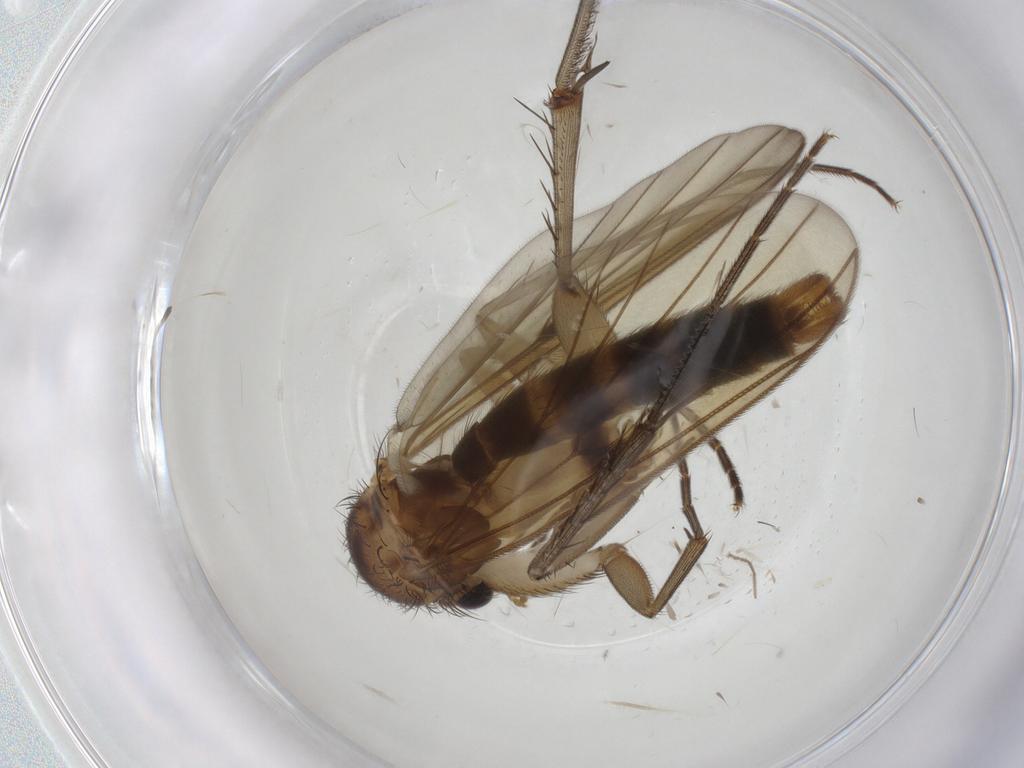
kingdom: Animalia
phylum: Arthropoda
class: Insecta
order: Diptera
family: Mycetophilidae
